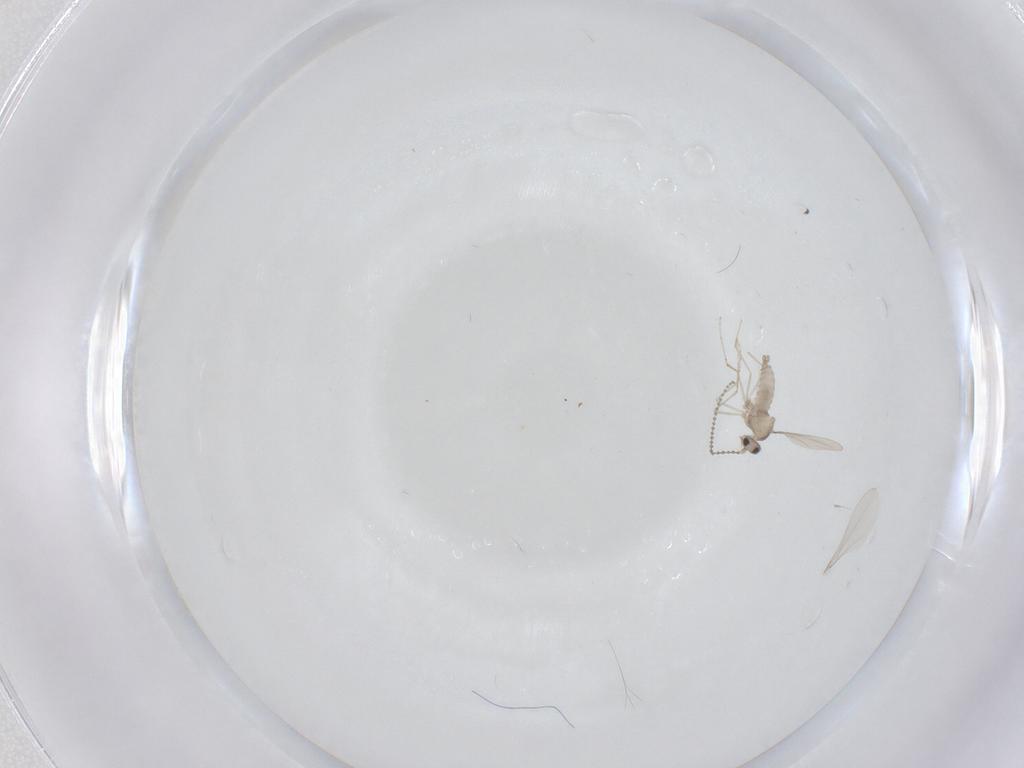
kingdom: Animalia
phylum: Arthropoda
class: Insecta
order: Diptera
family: Cecidomyiidae
